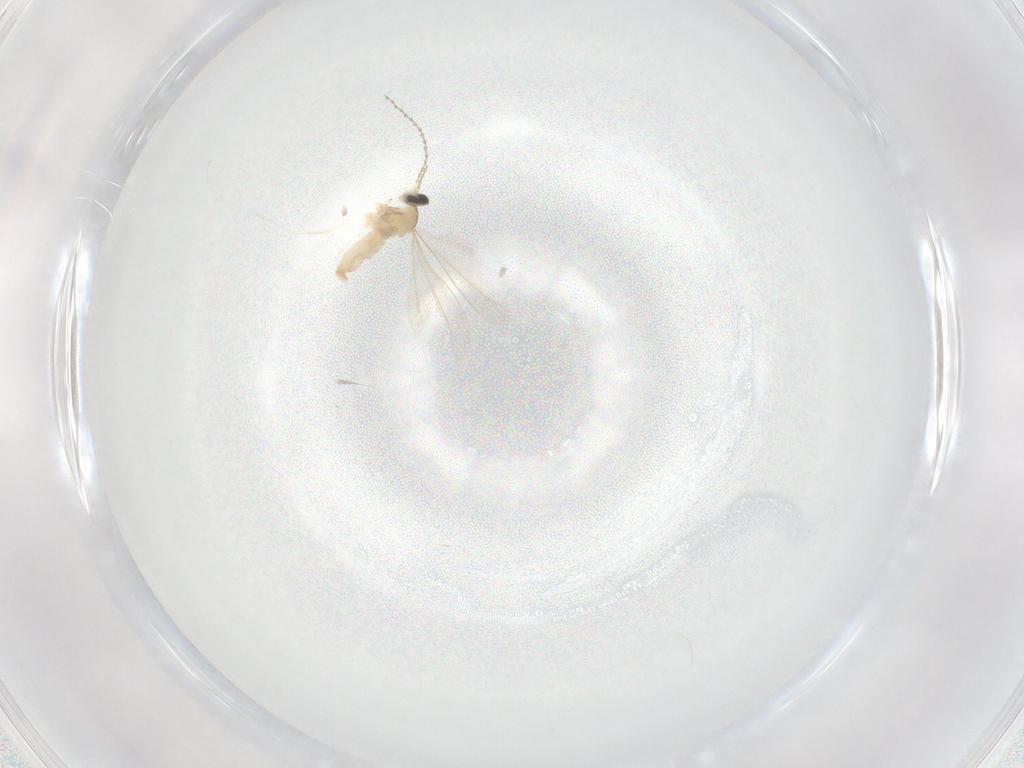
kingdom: Animalia
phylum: Arthropoda
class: Insecta
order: Diptera
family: Cecidomyiidae
